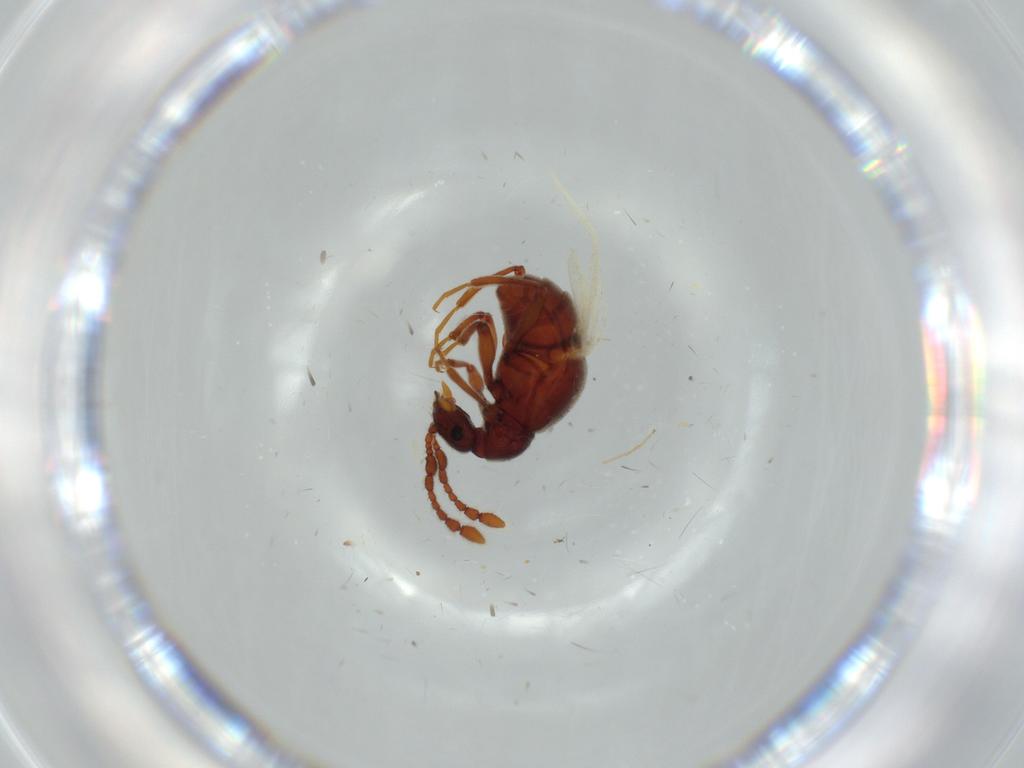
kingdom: Animalia
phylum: Arthropoda
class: Insecta
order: Coleoptera
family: Staphylinidae
